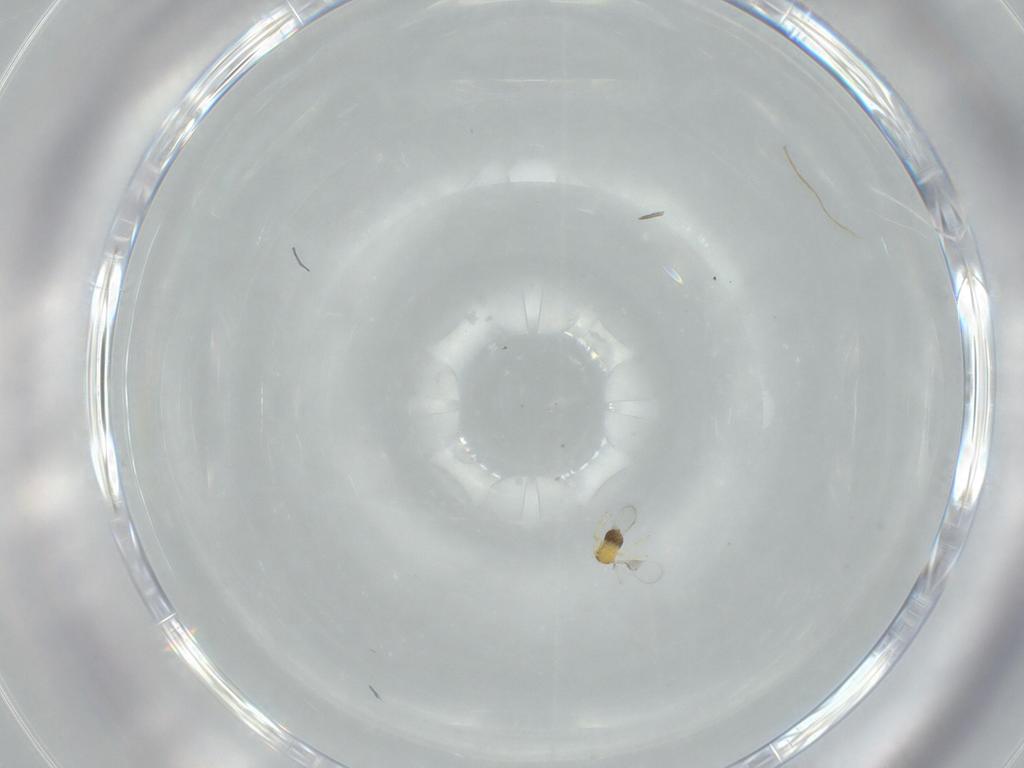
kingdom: Animalia
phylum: Arthropoda
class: Insecta
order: Hymenoptera
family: Trichogrammatidae
